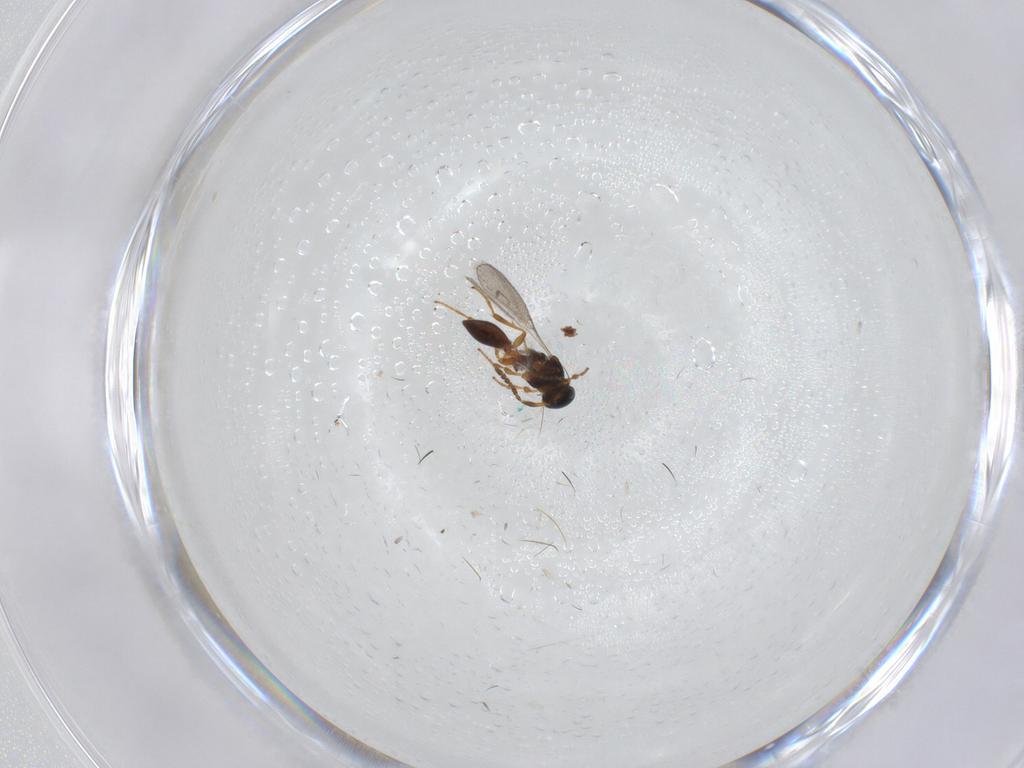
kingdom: Animalia
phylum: Arthropoda
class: Insecta
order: Hymenoptera
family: Platygastridae
